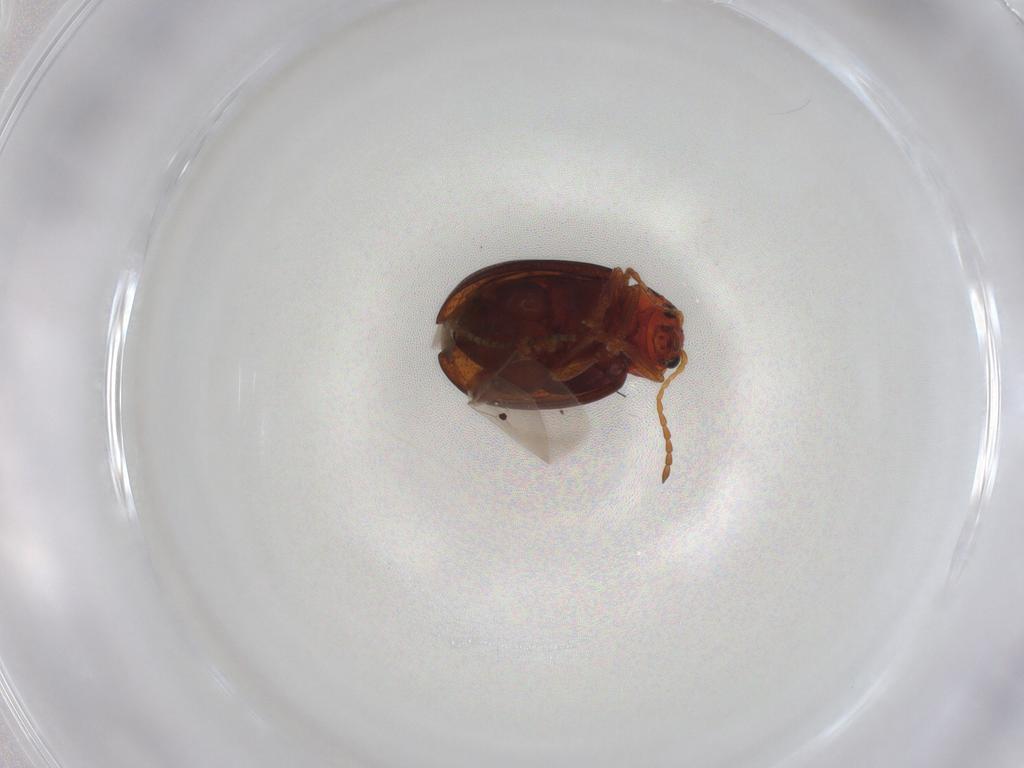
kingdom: Animalia
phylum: Arthropoda
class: Insecta
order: Coleoptera
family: Chrysomelidae
